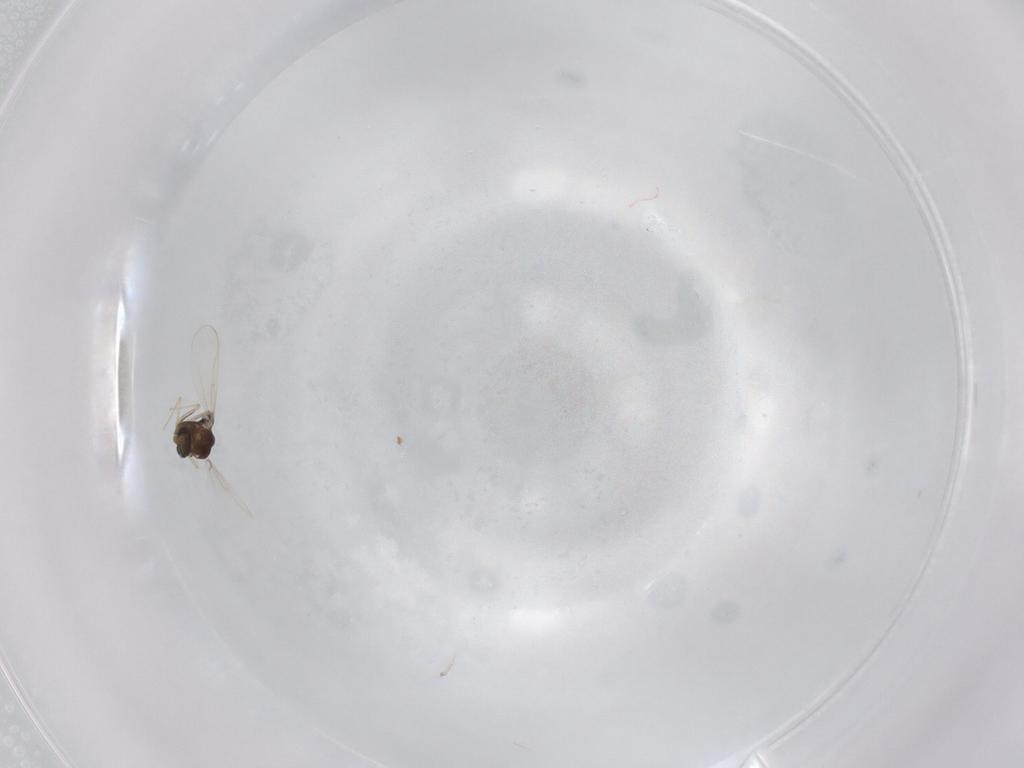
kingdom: Animalia
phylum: Arthropoda
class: Insecta
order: Diptera
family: Chironomidae
